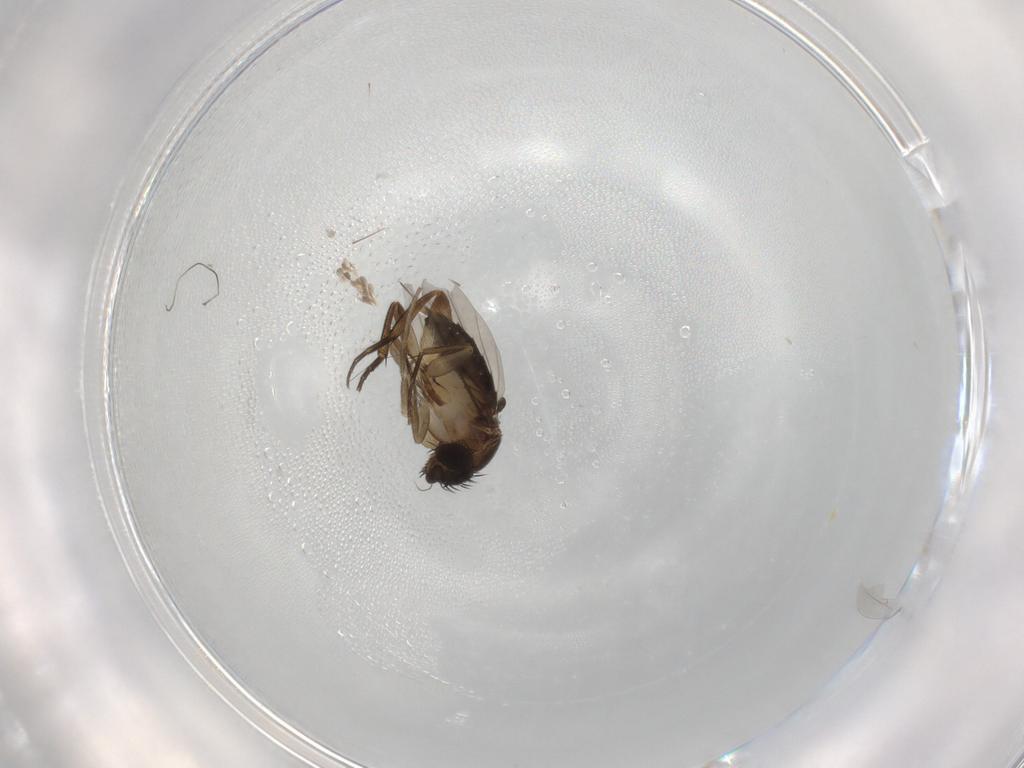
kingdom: Animalia
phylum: Arthropoda
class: Insecta
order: Diptera
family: Phoridae
